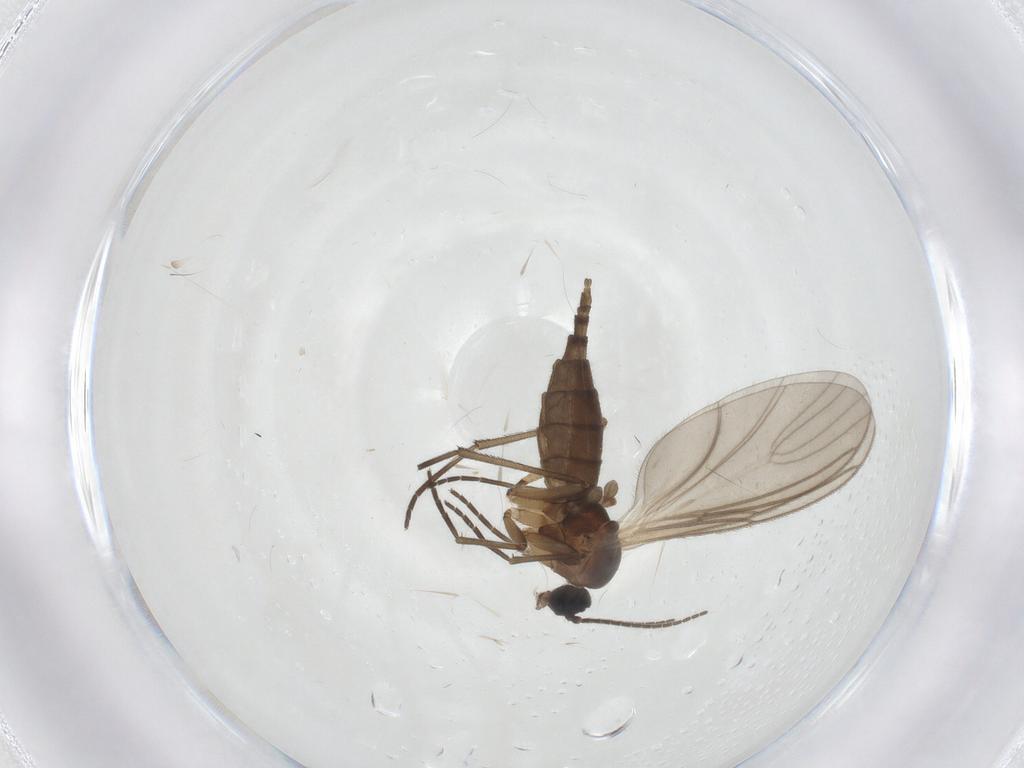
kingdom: Animalia
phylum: Arthropoda
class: Insecta
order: Diptera
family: Sciaridae
